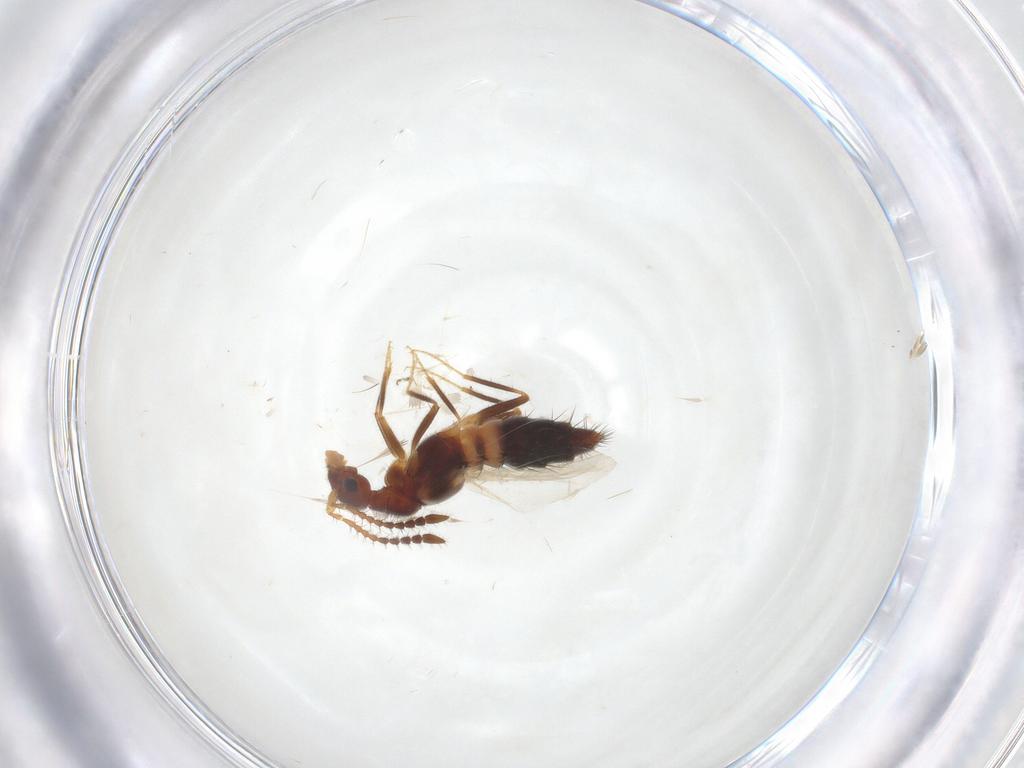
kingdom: Animalia
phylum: Arthropoda
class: Insecta
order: Coleoptera
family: Staphylinidae
